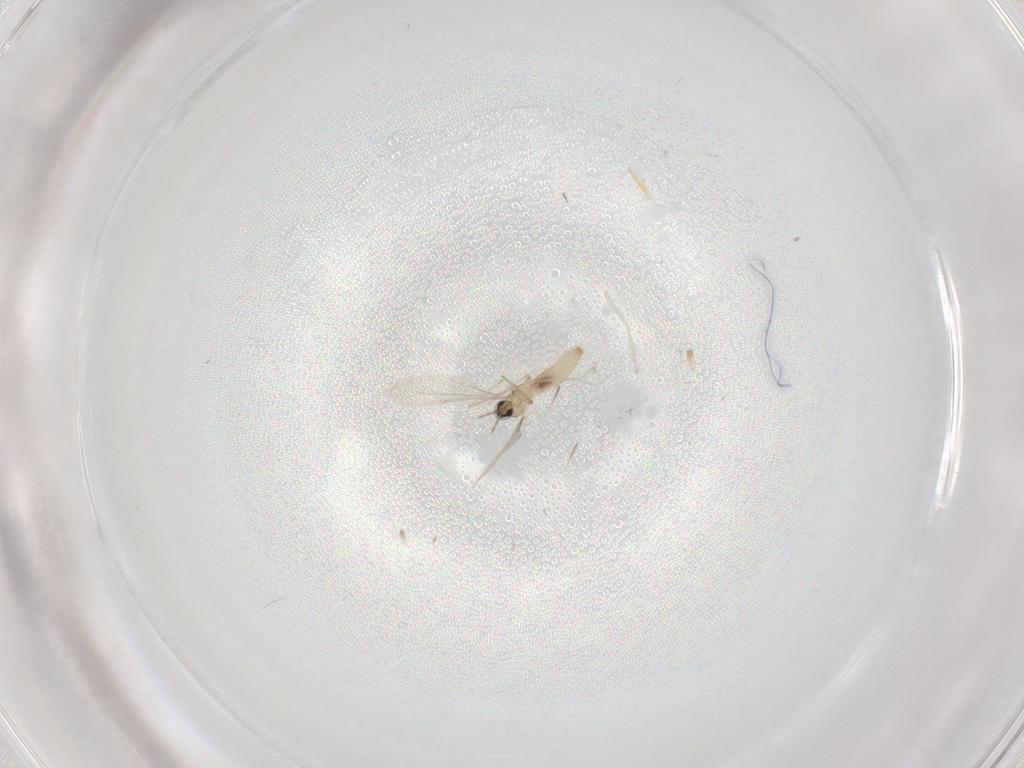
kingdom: Animalia
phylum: Arthropoda
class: Insecta
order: Diptera
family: Cecidomyiidae
